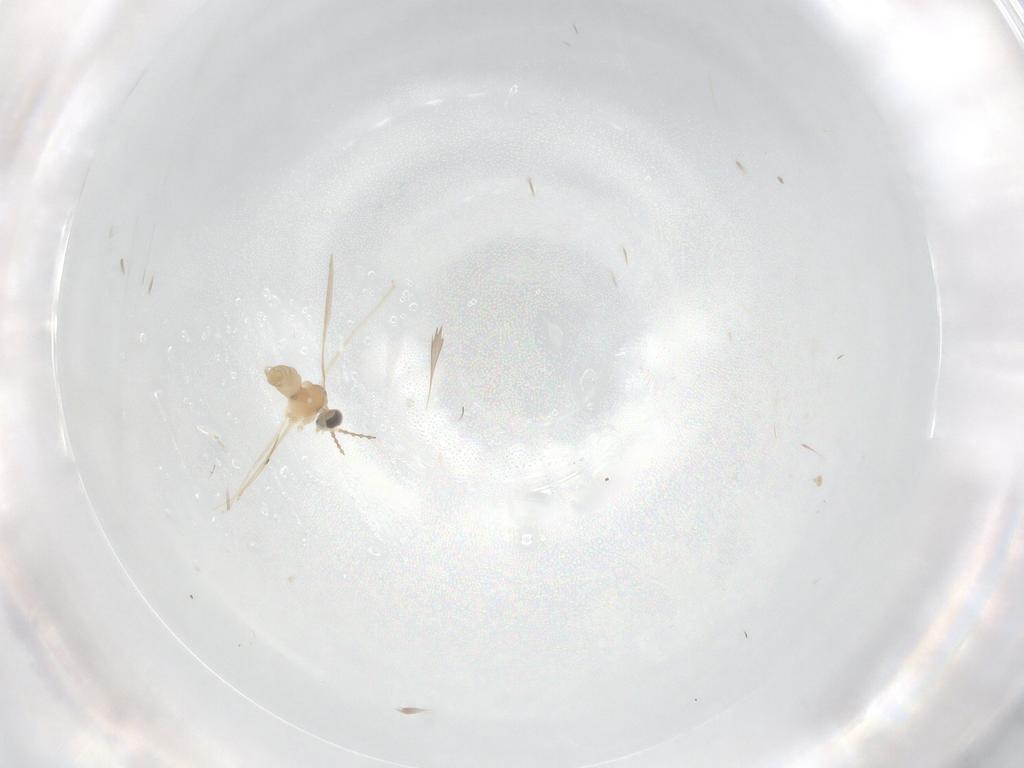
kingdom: Animalia
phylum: Arthropoda
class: Insecta
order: Diptera
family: Cecidomyiidae
